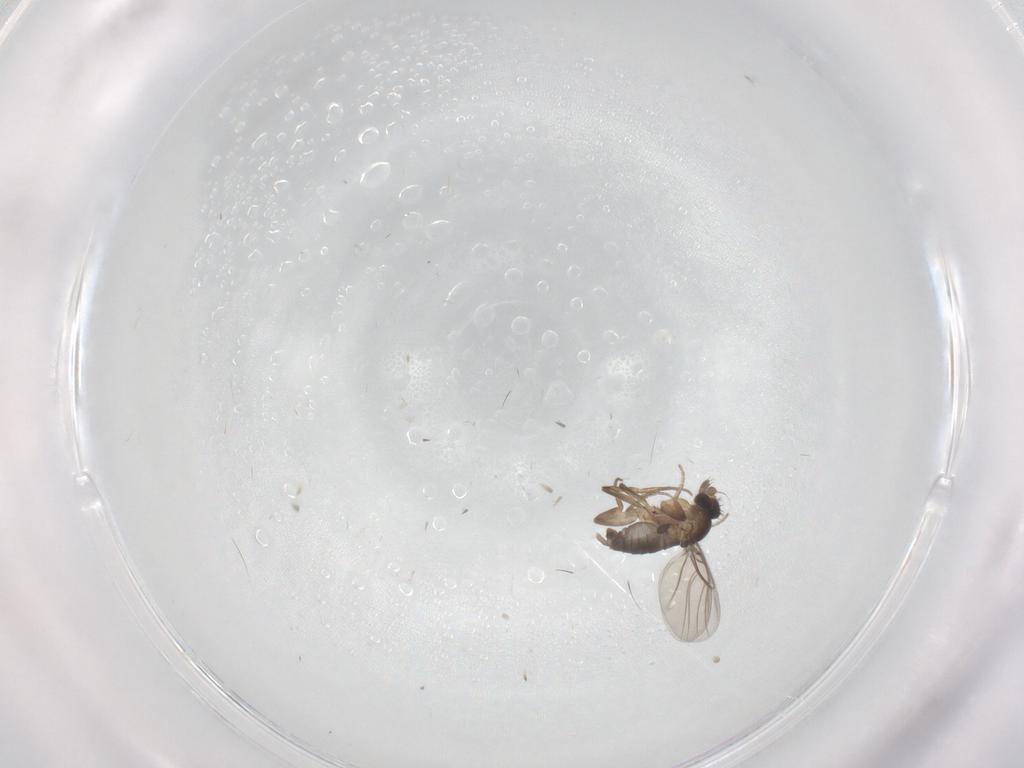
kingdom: Animalia
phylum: Arthropoda
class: Insecta
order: Diptera
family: Phoridae
